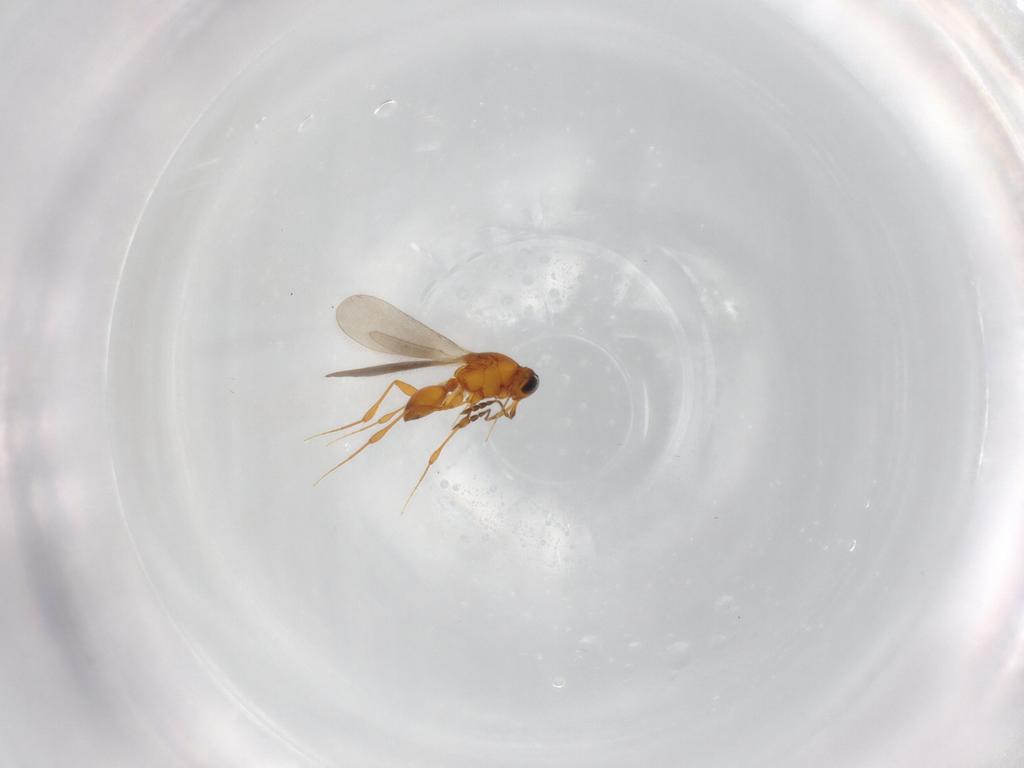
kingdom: Animalia
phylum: Arthropoda
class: Insecta
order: Hymenoptera
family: Platygastridae
